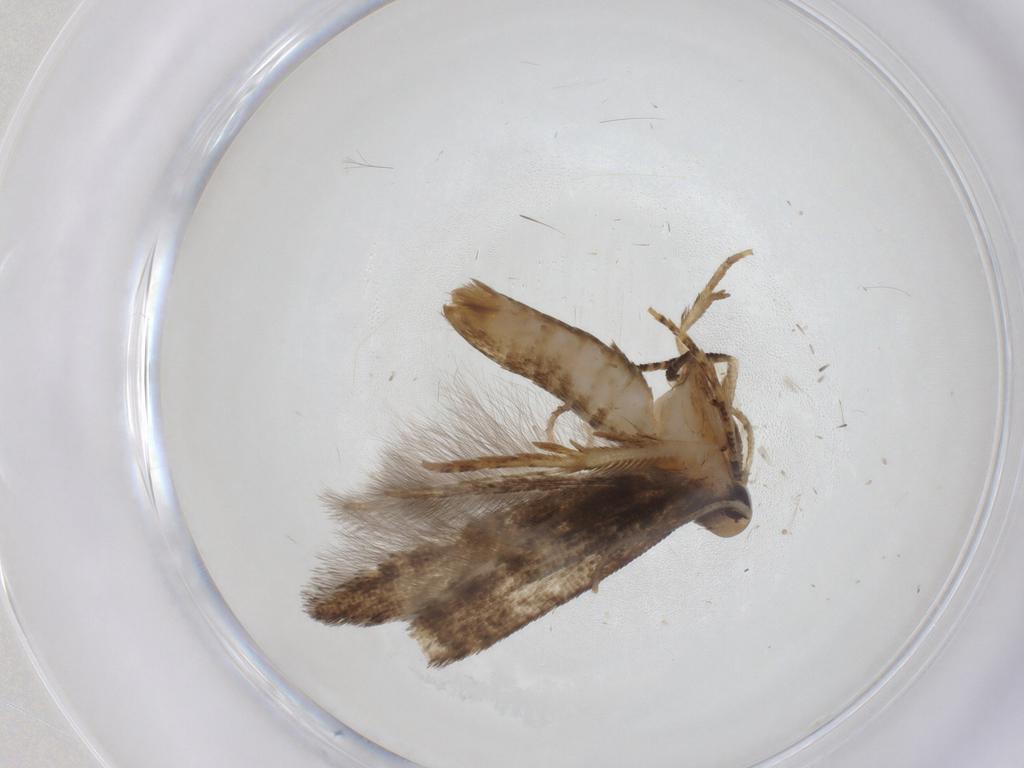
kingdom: Animalia
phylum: Arthropoda
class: Insecta
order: Lepidoptera
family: Cosmopterigidae
